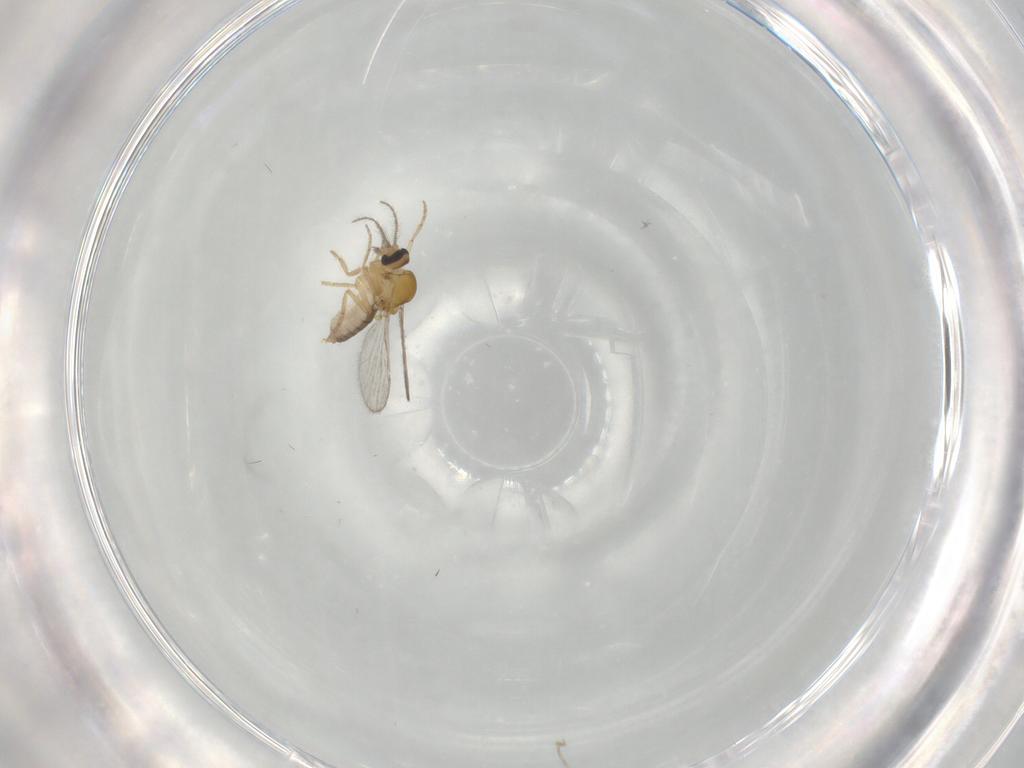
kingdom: Animalia
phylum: Arthropoda
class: Insecta
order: Diptera
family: Ceratopogonidae
